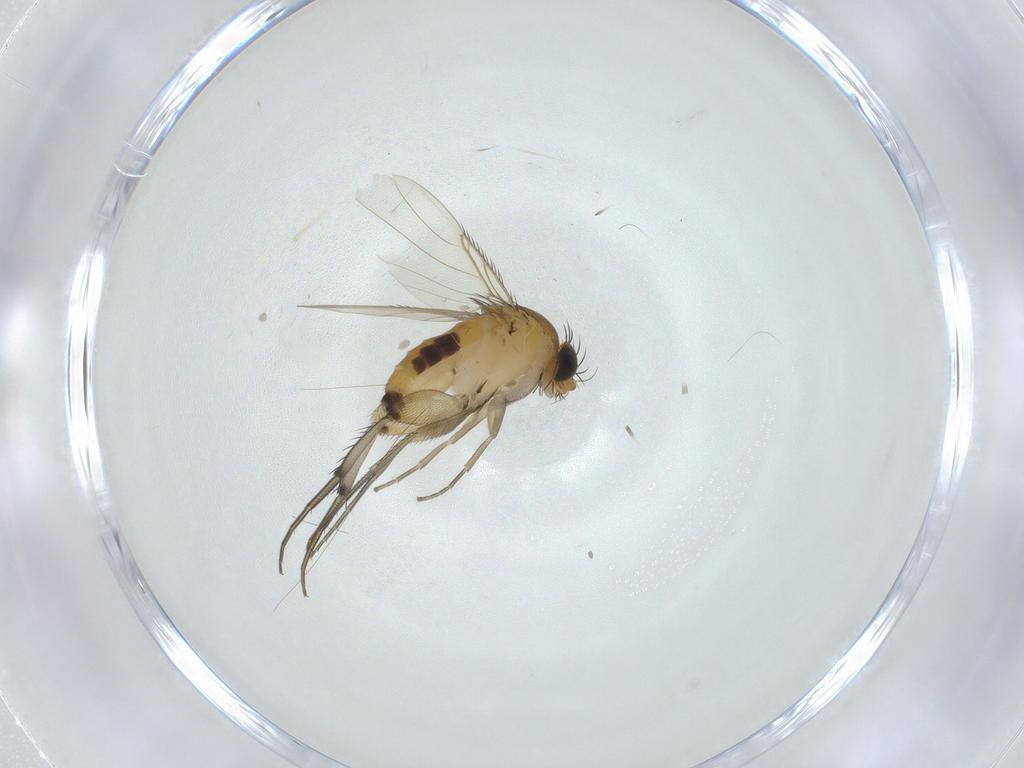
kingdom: Animalia
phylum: Arthropoda
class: Insecta
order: Diptera
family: Phoridae
